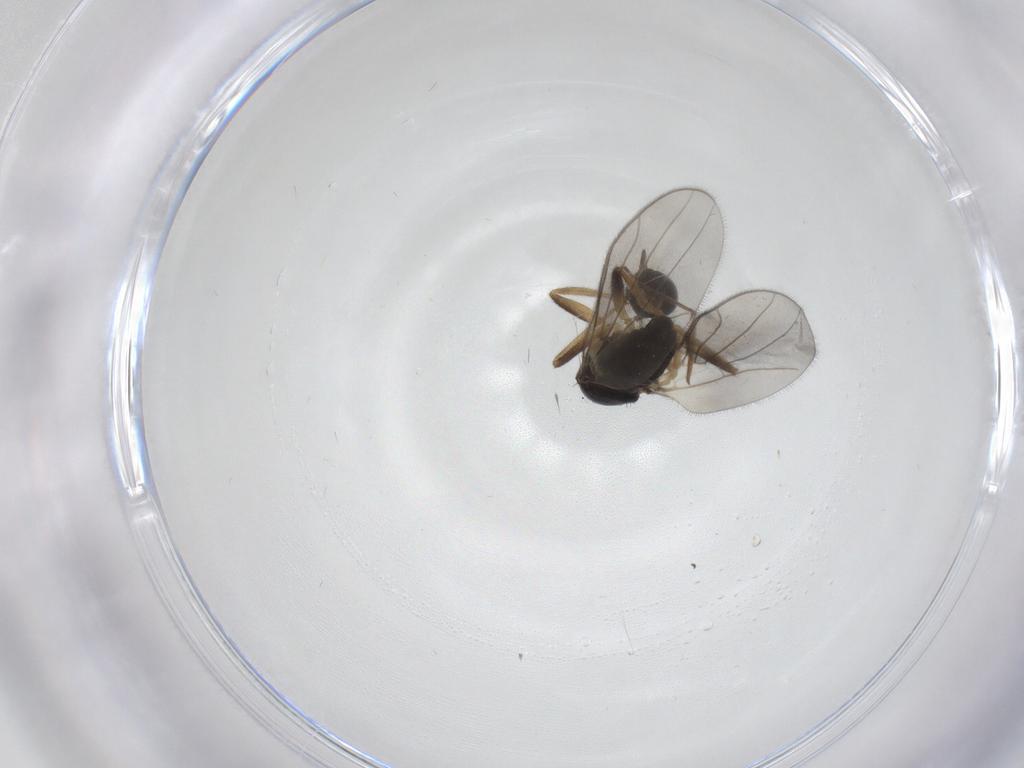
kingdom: Animalia
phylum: Arthropoda
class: Insecta
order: Diptera
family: Hybotidae
